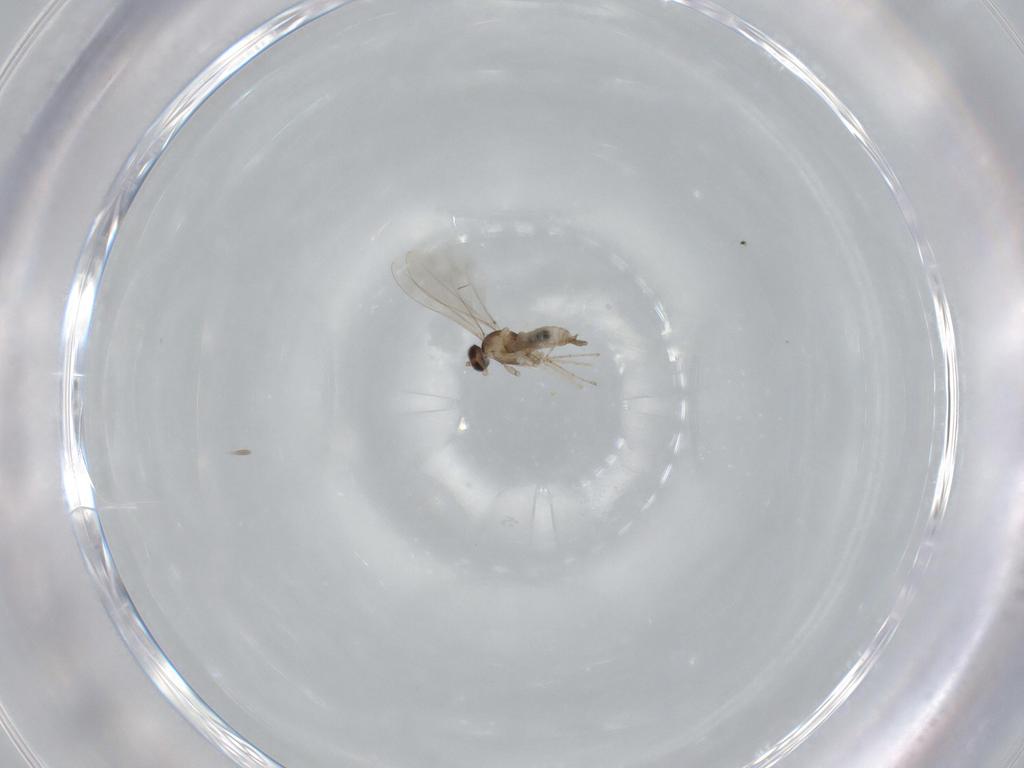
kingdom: Animalia
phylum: Arthropoda
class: Insecta
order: Diptera
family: Cecidomyiidae
